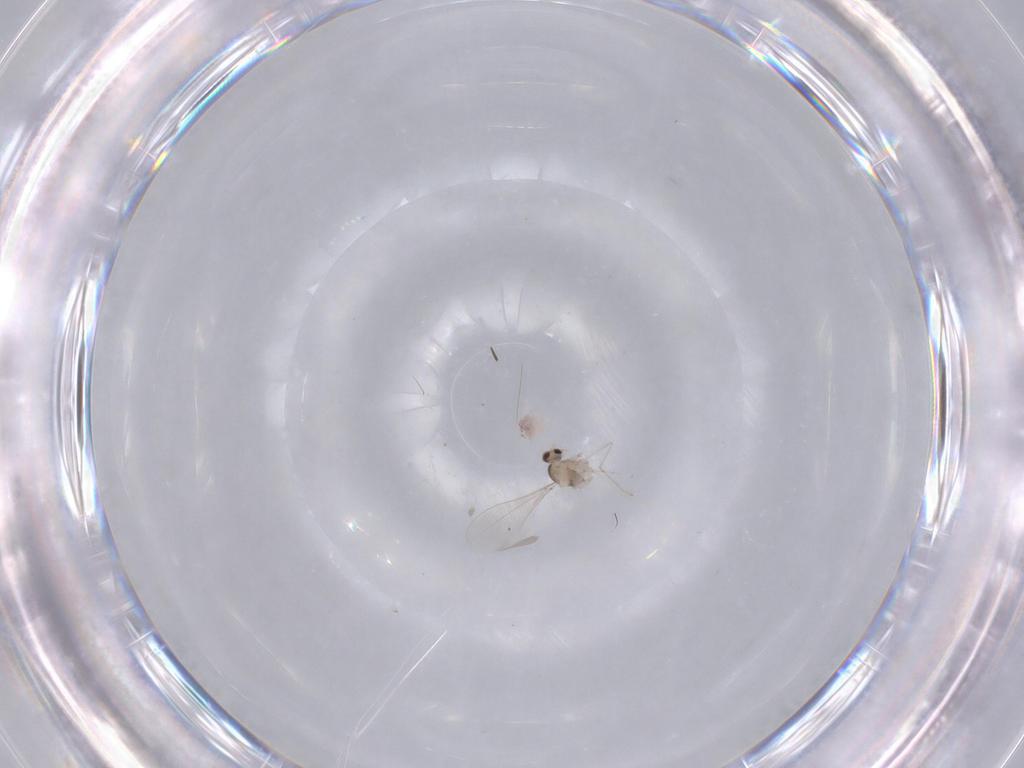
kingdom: Animalia
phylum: Arthropoda
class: Insecta
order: Diptera
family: Cecidomyiidae
